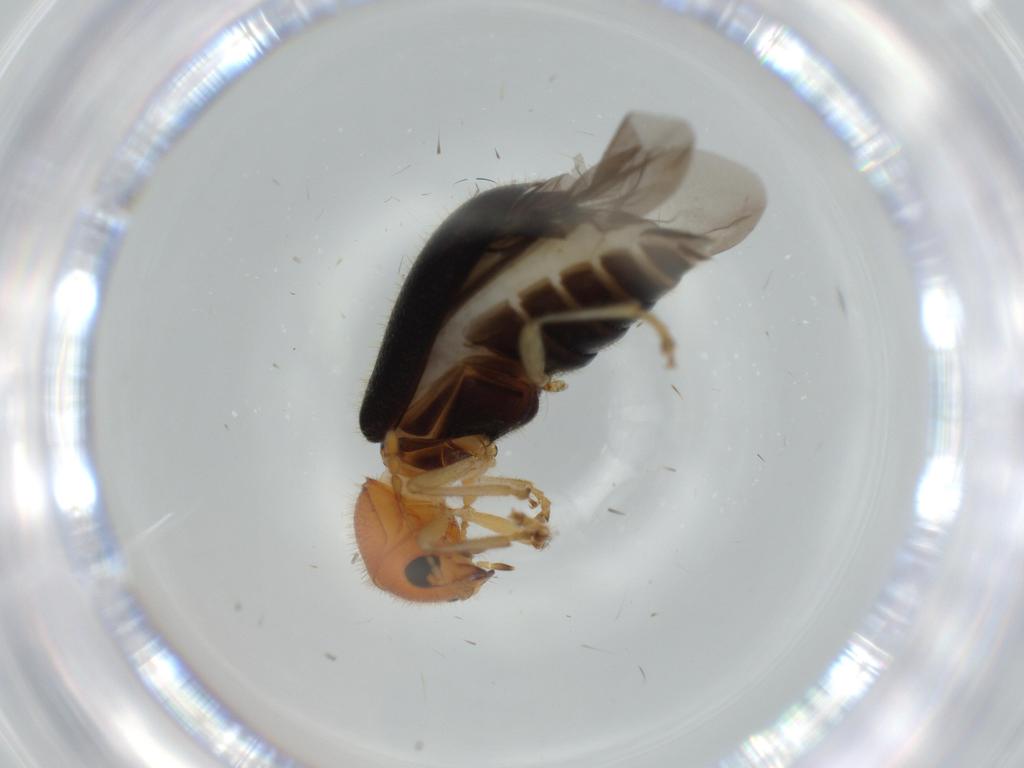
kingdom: Animalia
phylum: Arthropoda
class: Insecta
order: Coleoptera
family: Cleridae
